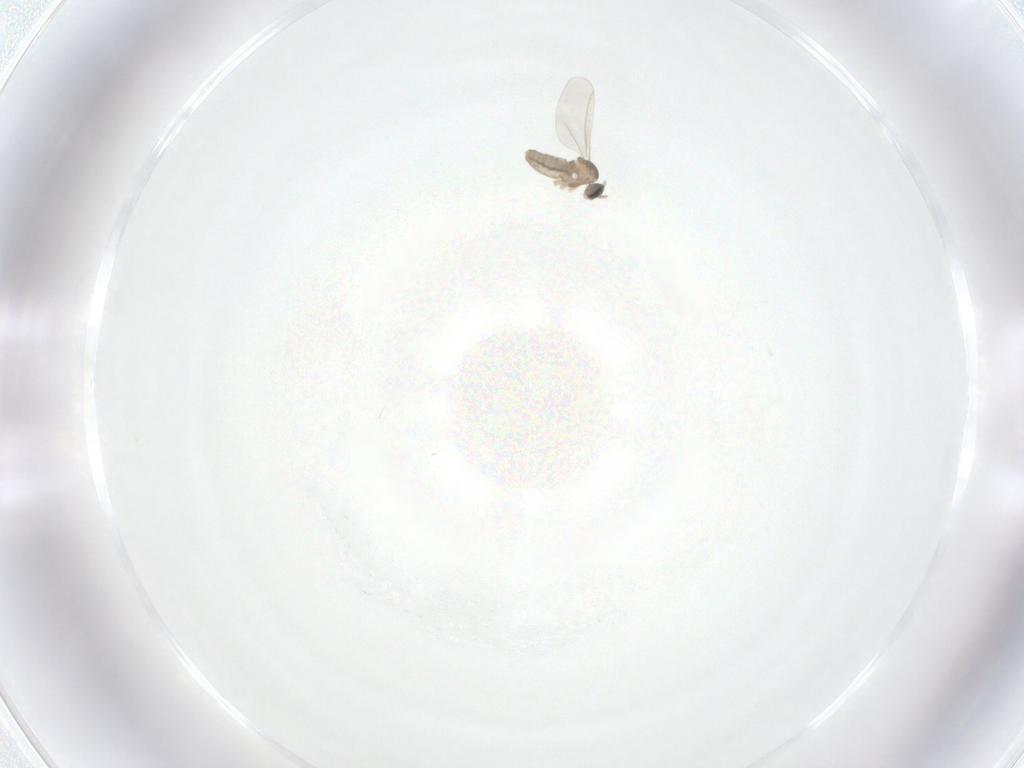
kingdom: Animalia
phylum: Arthropoda
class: Insecta
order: Diptera
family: Cecidomyiidae
